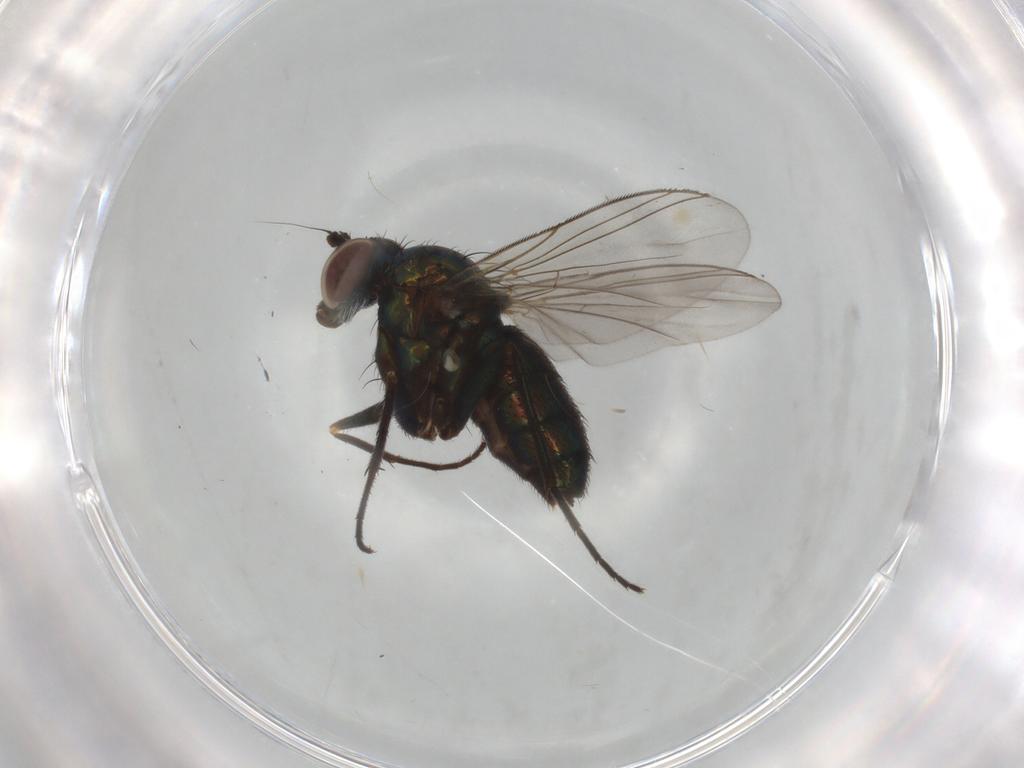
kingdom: Animalia
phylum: Arthropoda
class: Insecta
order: Diptera
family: Dolichopodidae
